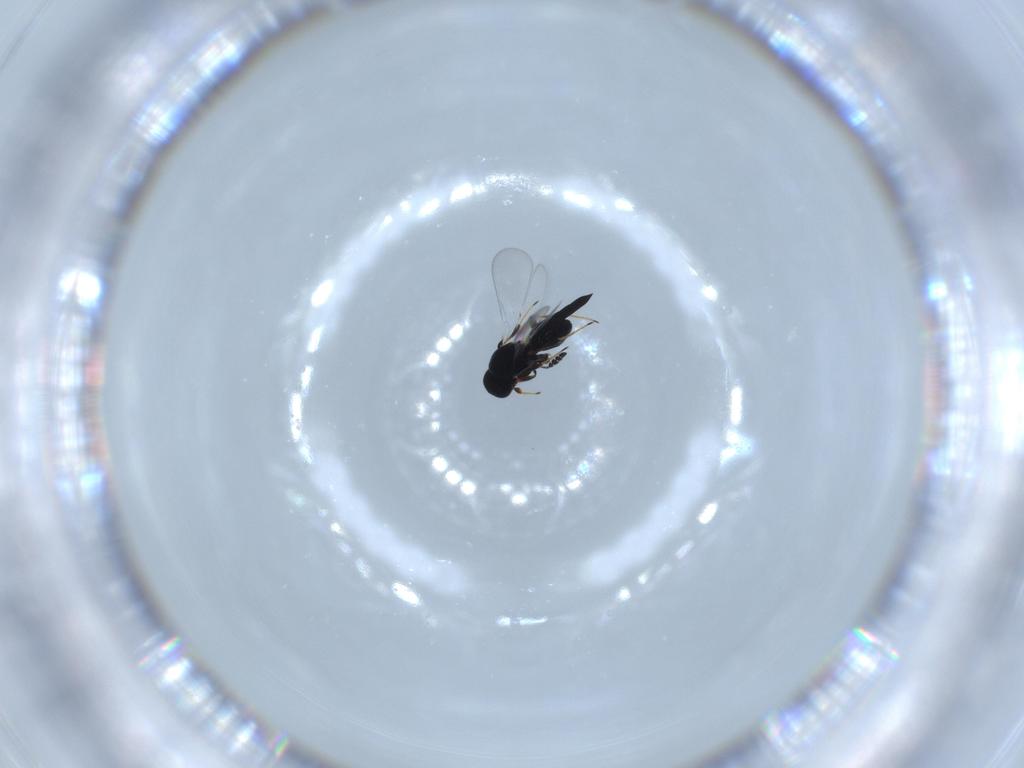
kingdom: Animalia
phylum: Arthropoda
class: Insecta
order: Hymenoptera
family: Platygastridae
